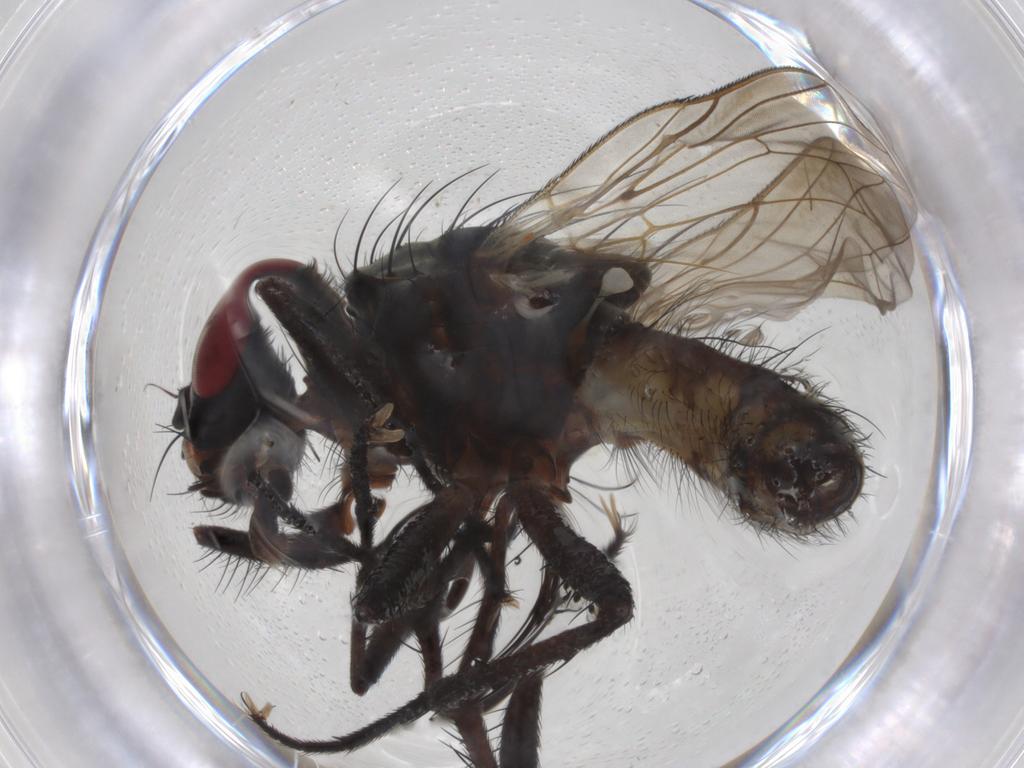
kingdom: Animalia
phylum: Arthropoda
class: Insecta
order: Diptera
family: Anthomyiidae
